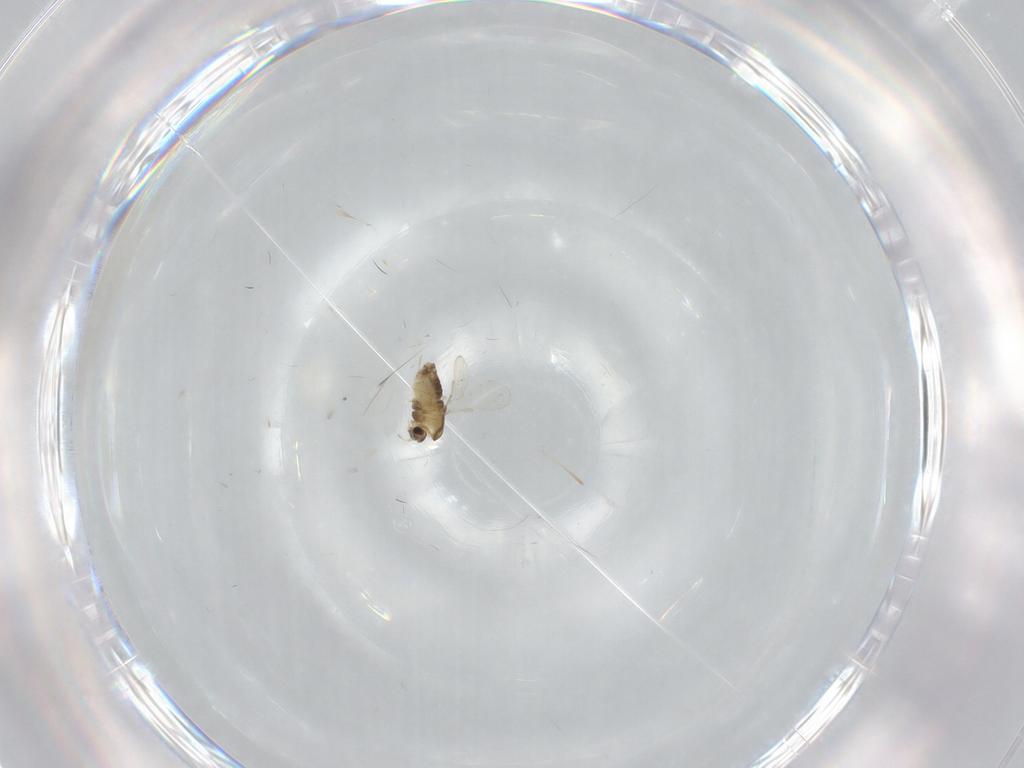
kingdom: Animalia
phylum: Arthropoda
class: Insecta
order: Diptera
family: Chironomidae
